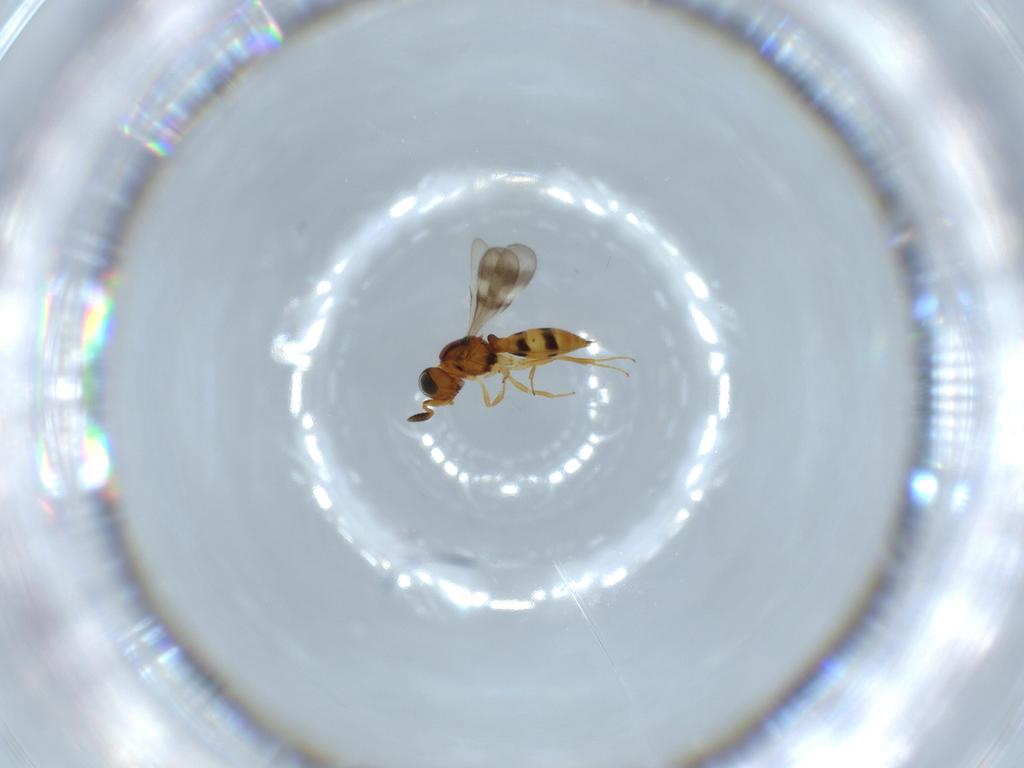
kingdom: Animalia
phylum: Arthropoda
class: Insecta
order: Hymenoptera
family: Scelionidae
